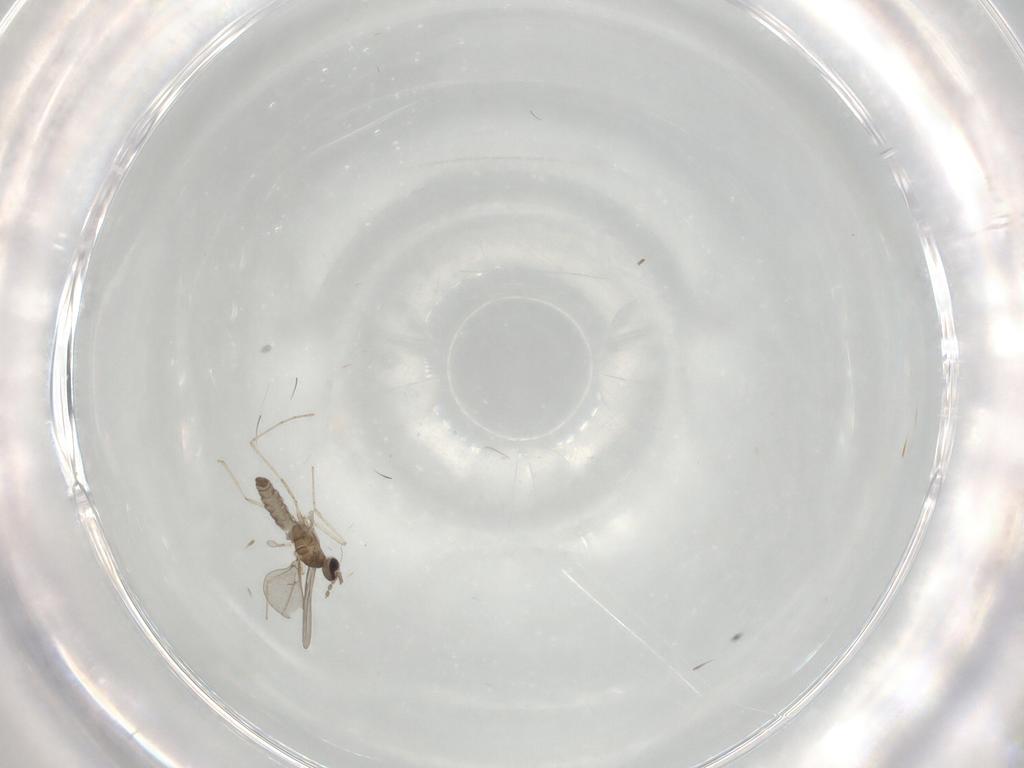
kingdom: Animalia
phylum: Arthropoda
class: Insecta
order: Diptera
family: Cecidomyiidae
